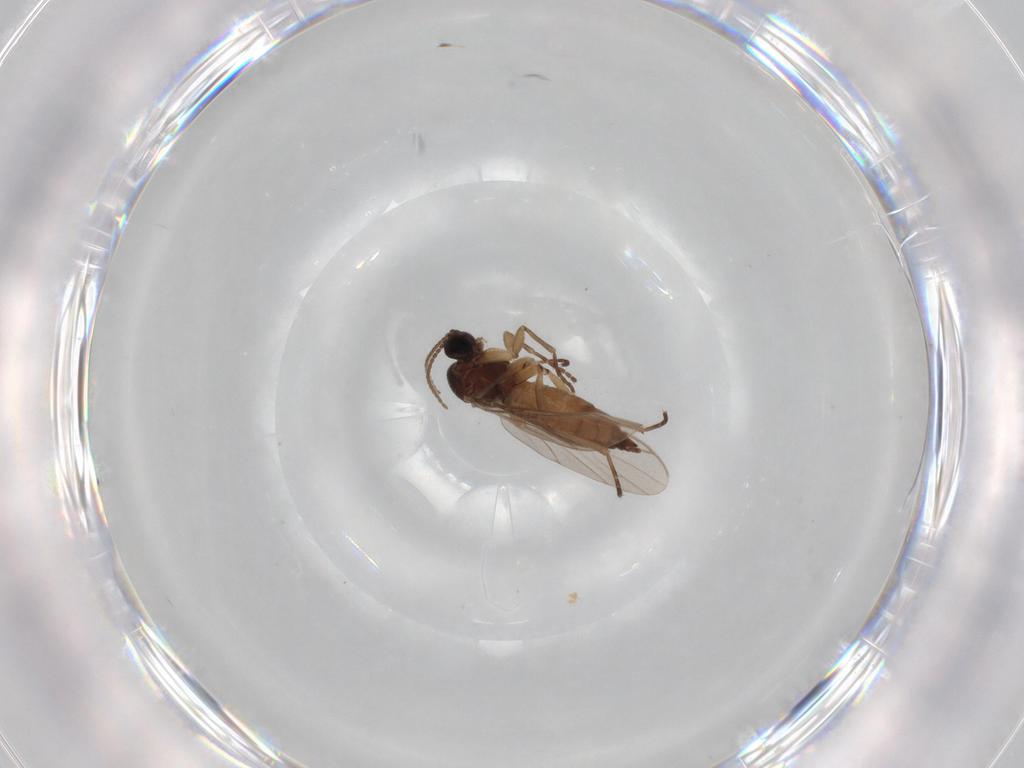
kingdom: Animalia
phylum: Arthropoda
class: Insecta
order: Diptera
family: Sciaridae
